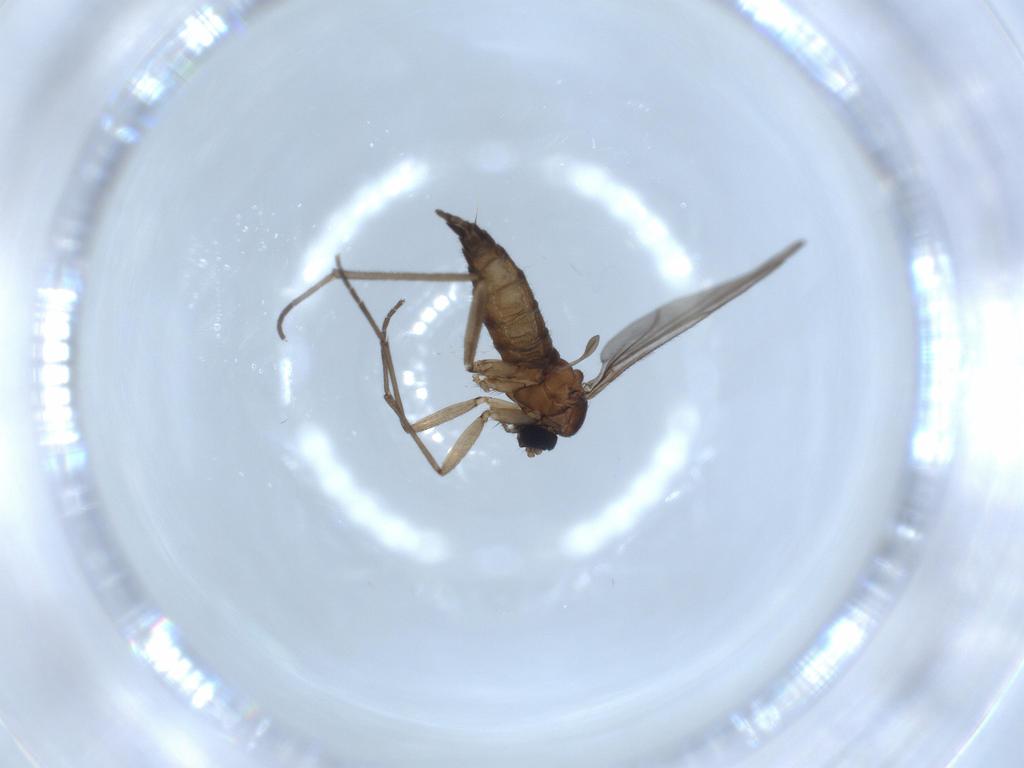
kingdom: Animalia
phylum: Arthropoda
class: Insecta
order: Diptera
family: Sciaridae
